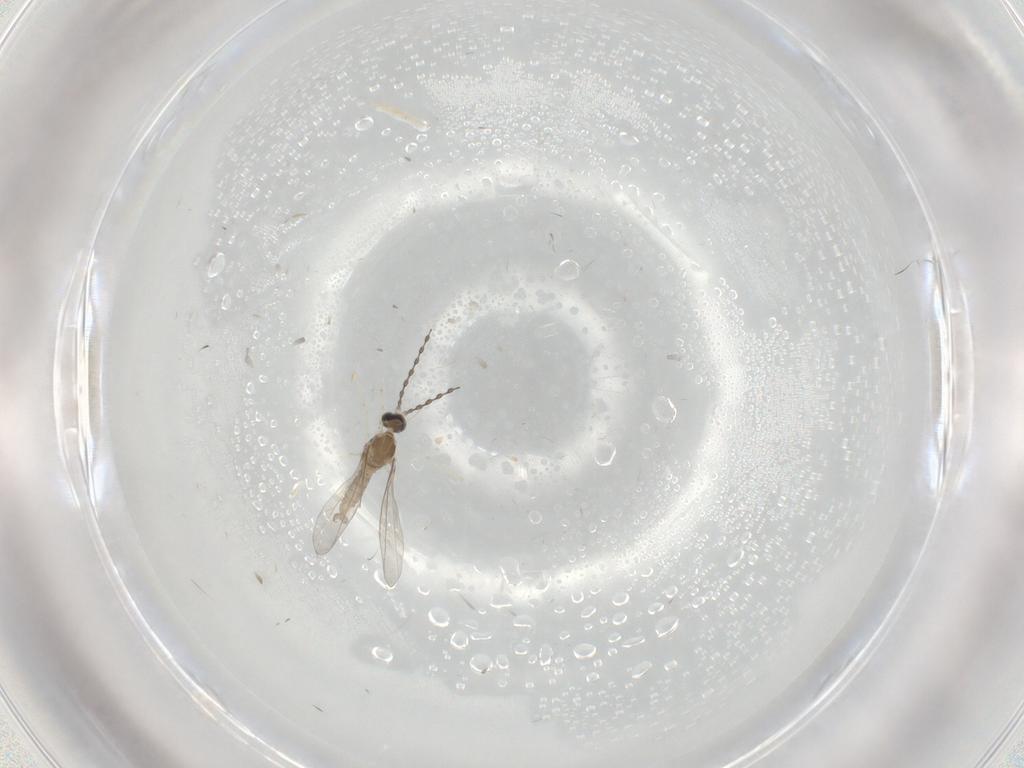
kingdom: Animalia
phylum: Arthropoda
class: Insecta
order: Diptera
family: Cecidomyiidae
